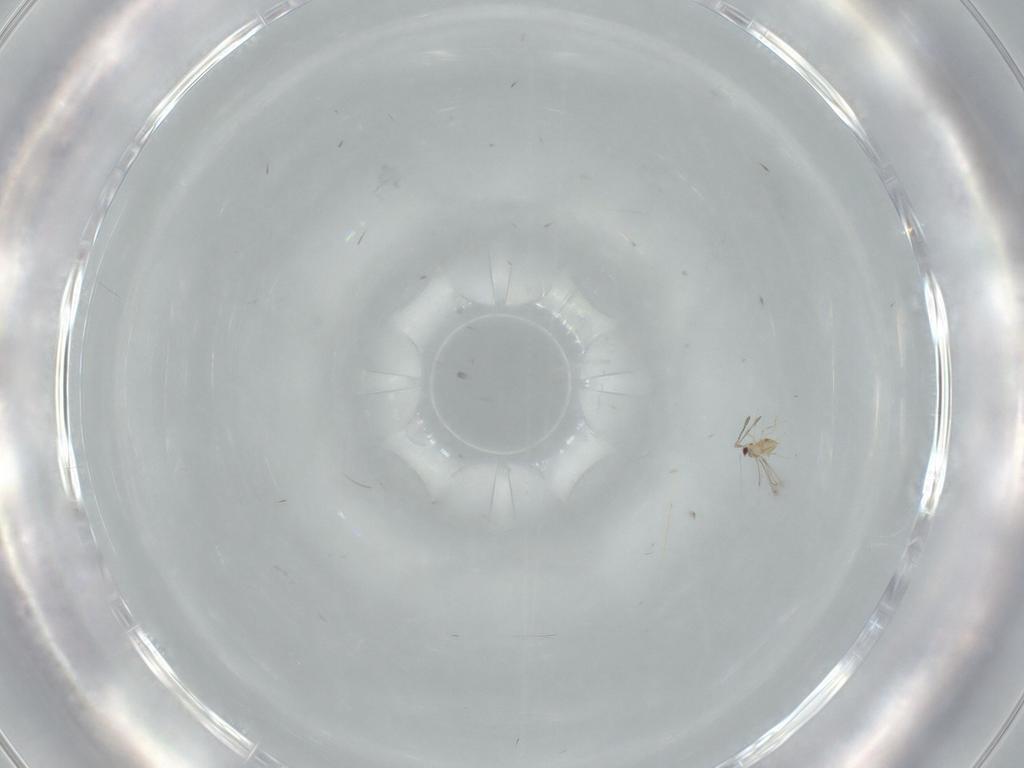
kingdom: Animalia
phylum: Arthropoda
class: Insecta
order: Hymenoptera
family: Mymaridae
